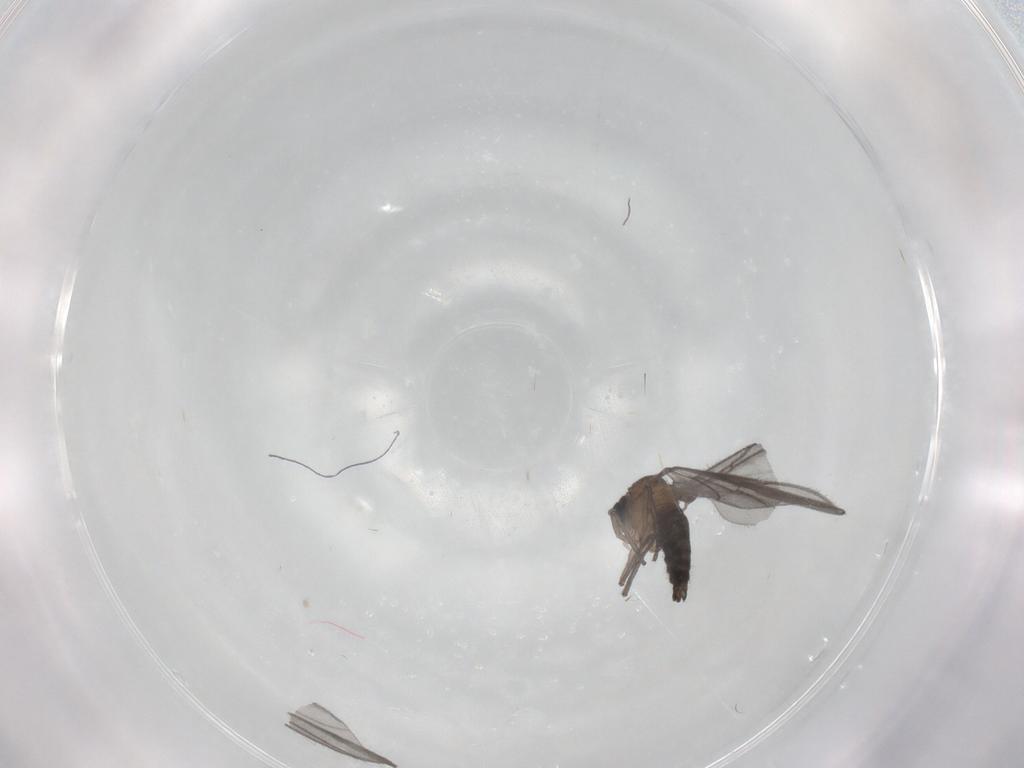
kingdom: Animalia
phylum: Arthropoda
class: Insecta
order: Diptera
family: Sciaridae
